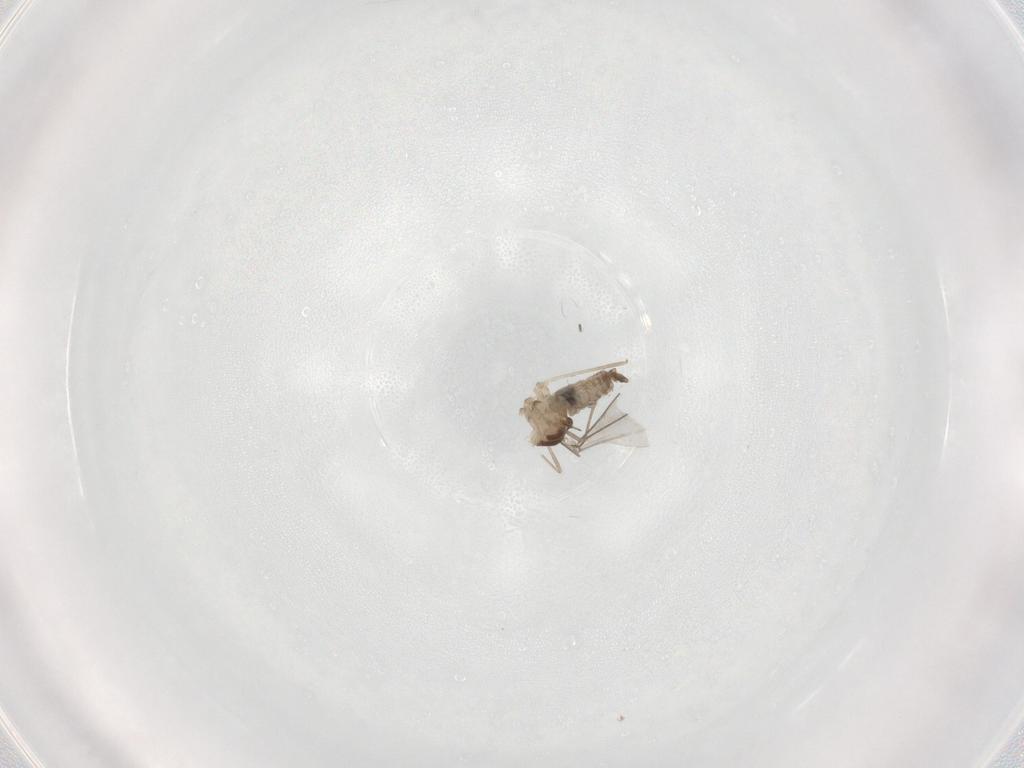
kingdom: Animalia
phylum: Arthropoda
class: Insecta
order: Diptera
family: Cecidomyiidae
